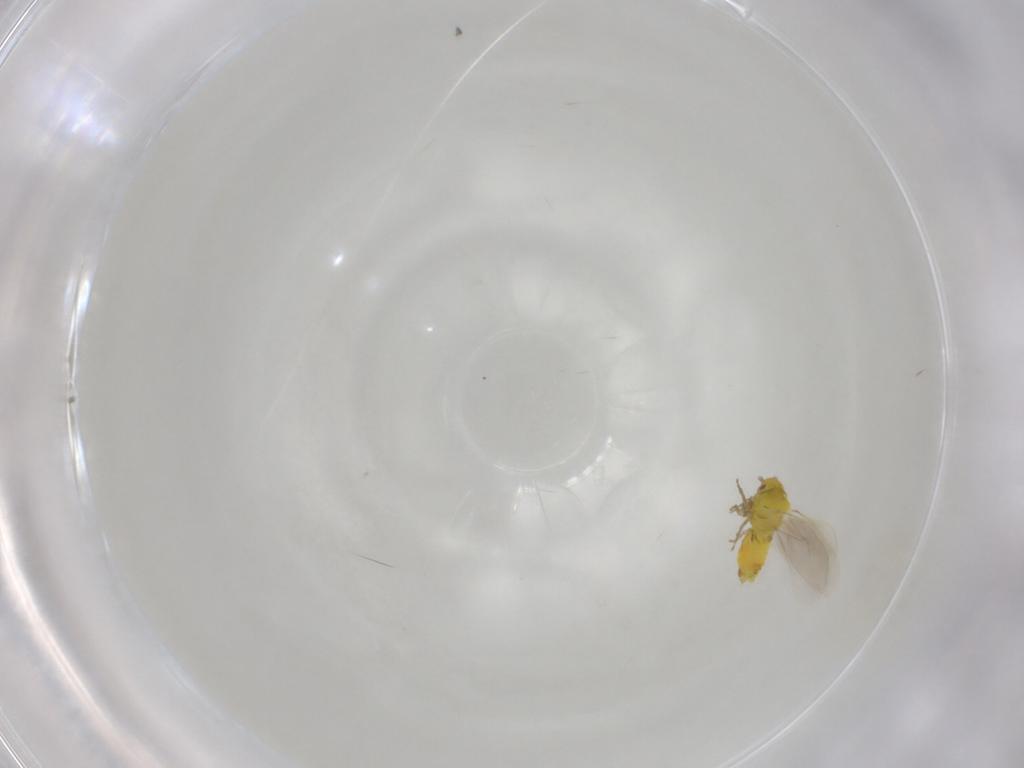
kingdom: Animalia
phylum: Arthropoda
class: Insecta
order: Hemiptera
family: Aleyrodidae
